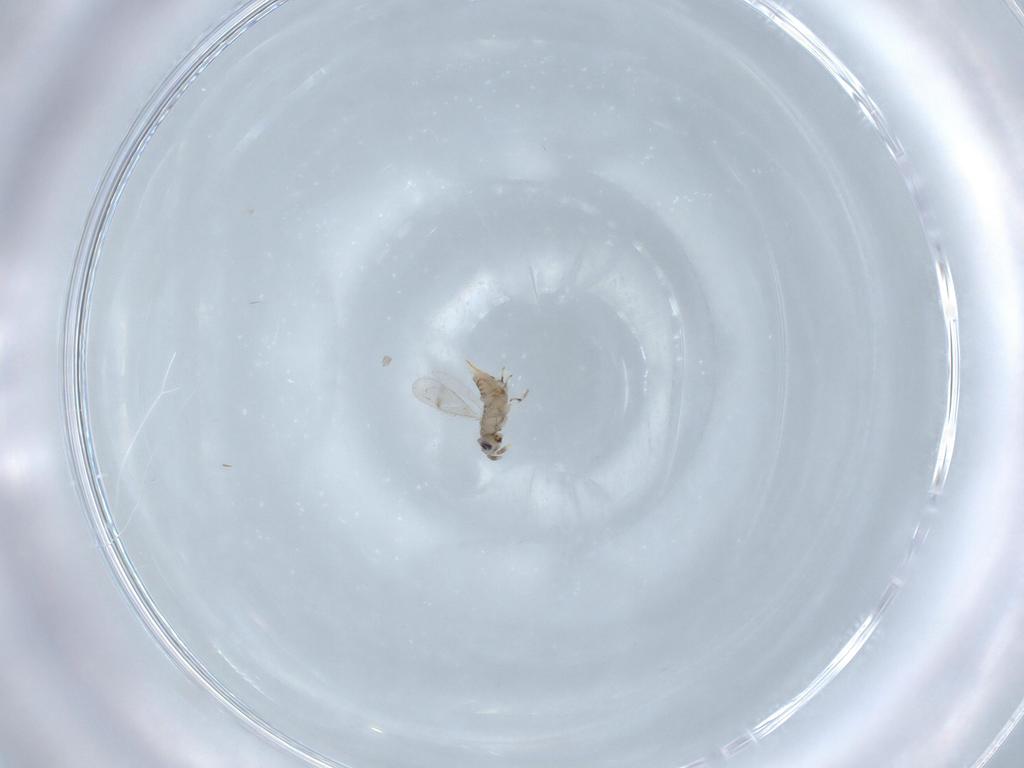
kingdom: Animalia
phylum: Arthropoda
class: Insecta
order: Hymenoptera
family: Aphelinidae
